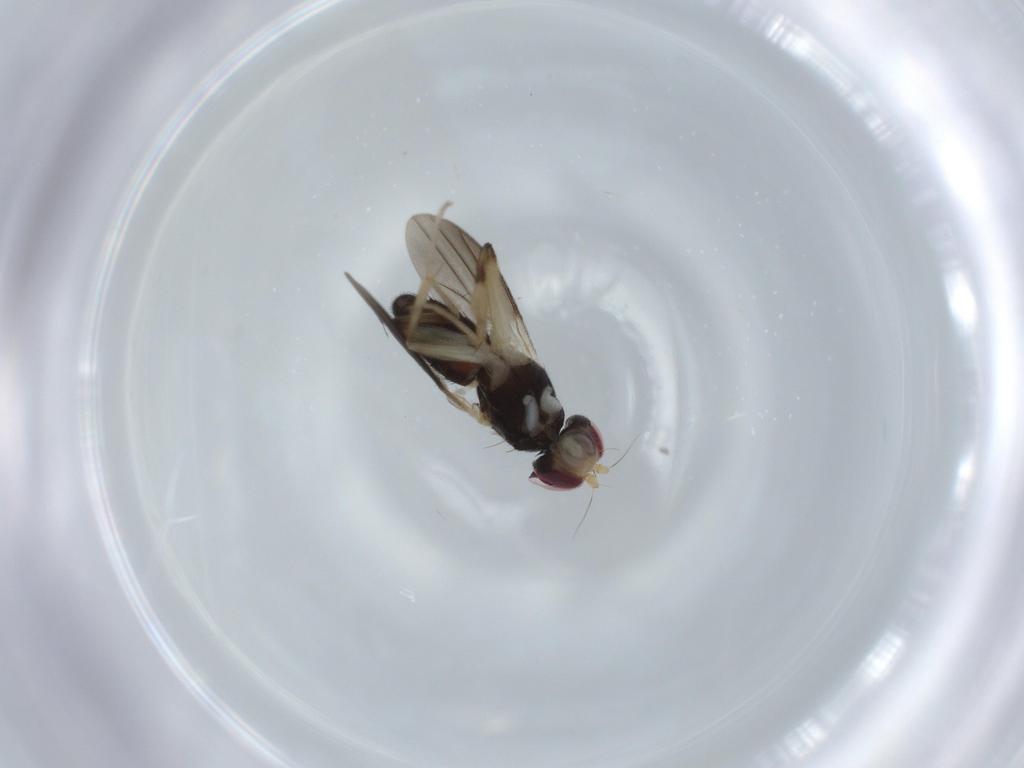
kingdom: Animalia
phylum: Arthropoda
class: Insecta
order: Diptera
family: Clusiidae
